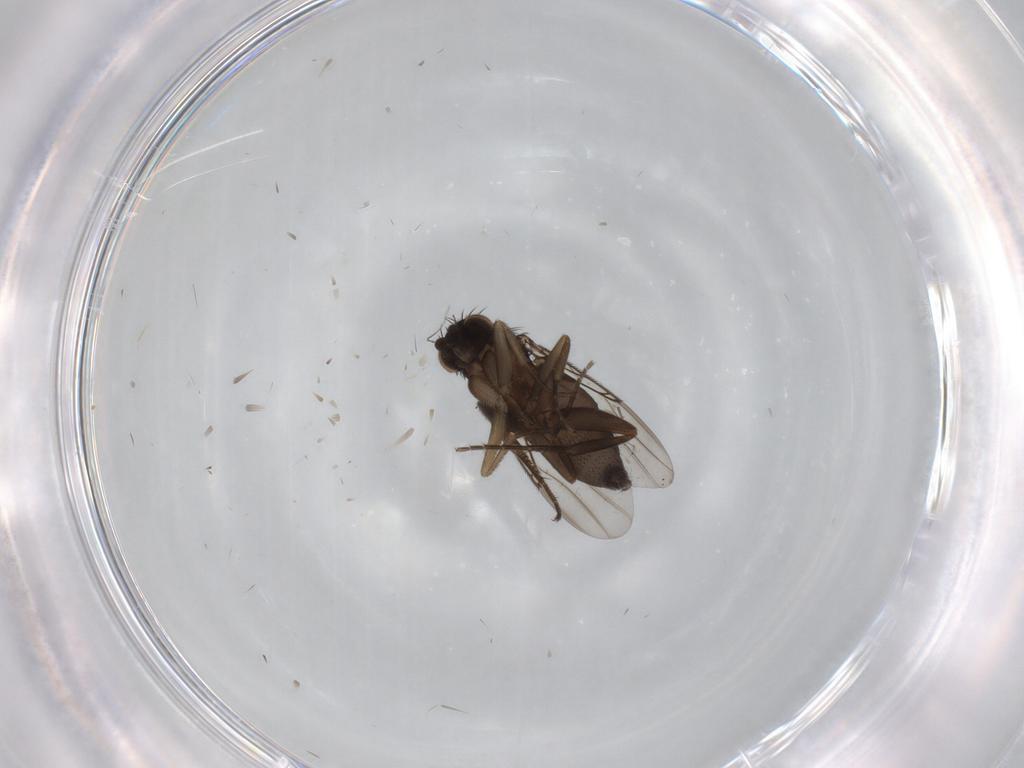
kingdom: Animalia
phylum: Arthropoda
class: Insecta
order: Diptera
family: Phoridae
